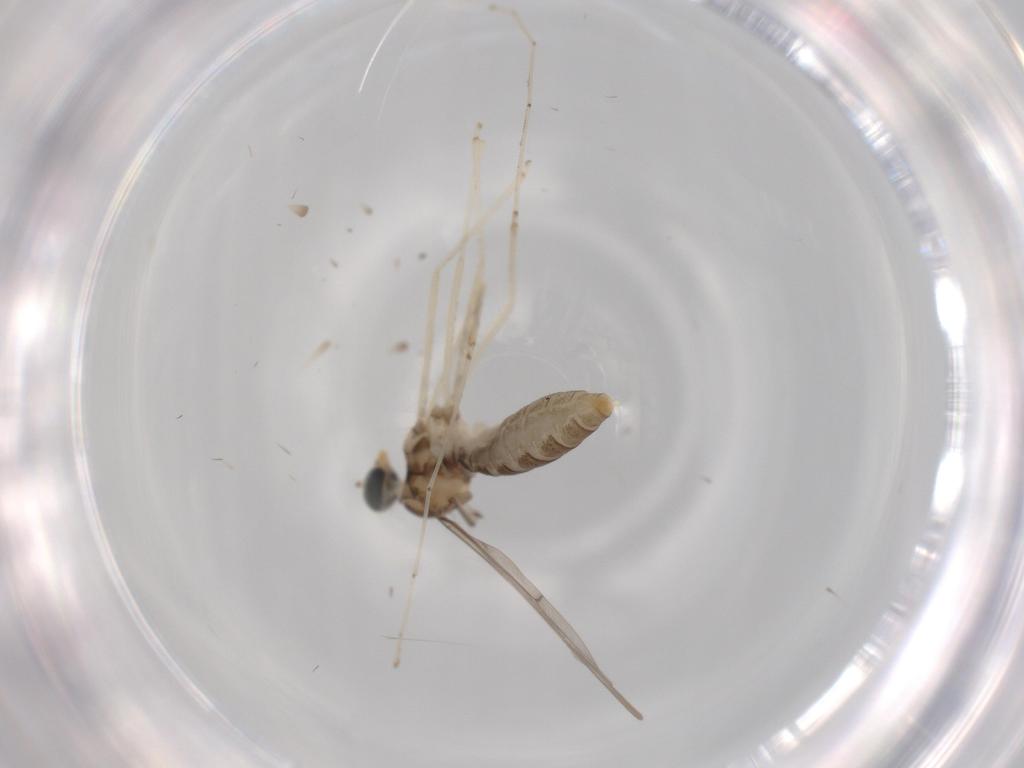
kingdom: Animalia
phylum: Arthropoda
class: Insecta
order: Diptera
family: Cecidomyiidae
